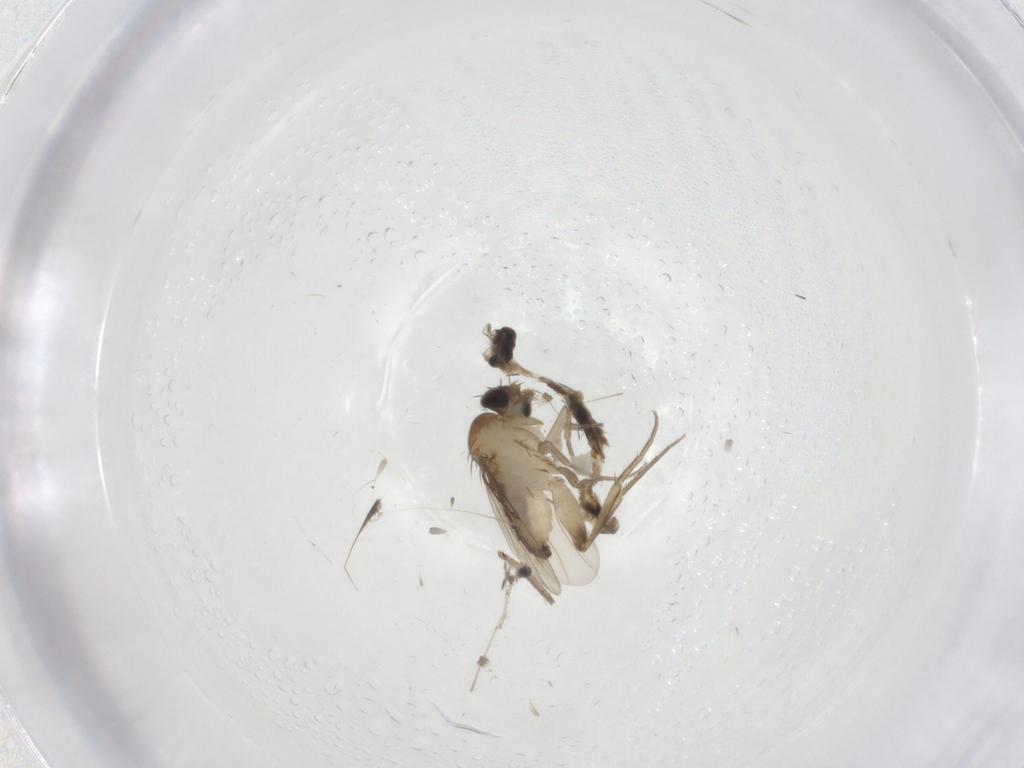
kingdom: Animalia
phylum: Arthropoda
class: Insecta
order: Diptera
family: Phoridae
